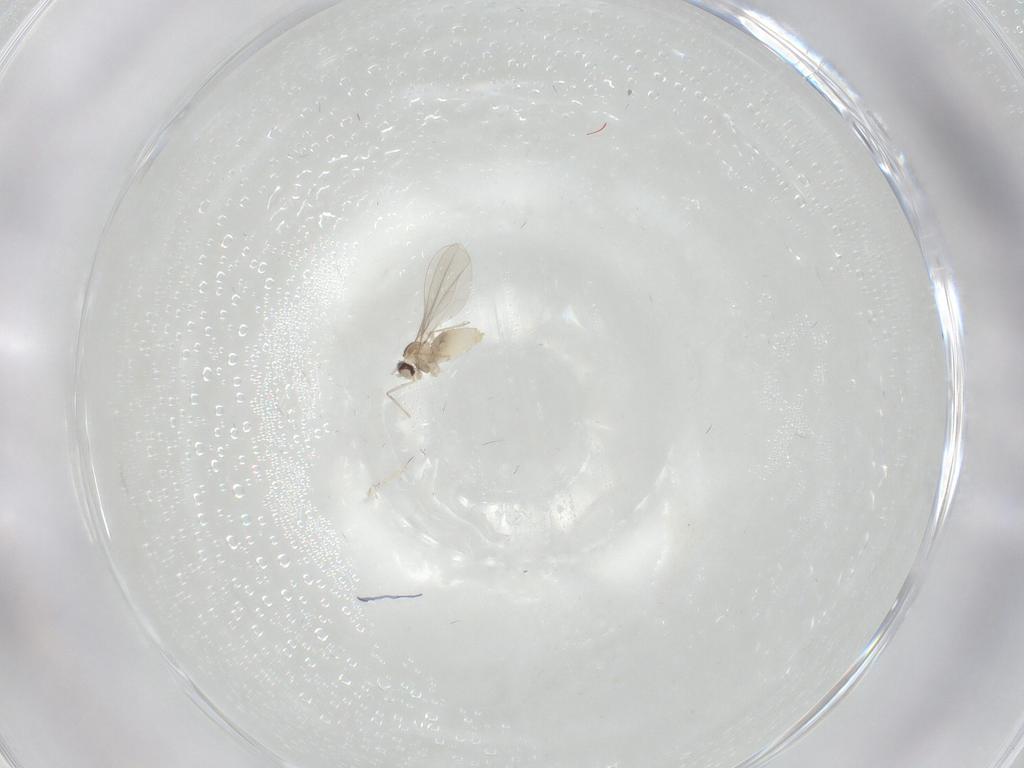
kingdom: Animalia
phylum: Arthropoda
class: Insecta
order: Diptera
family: Cecidomyiidae
